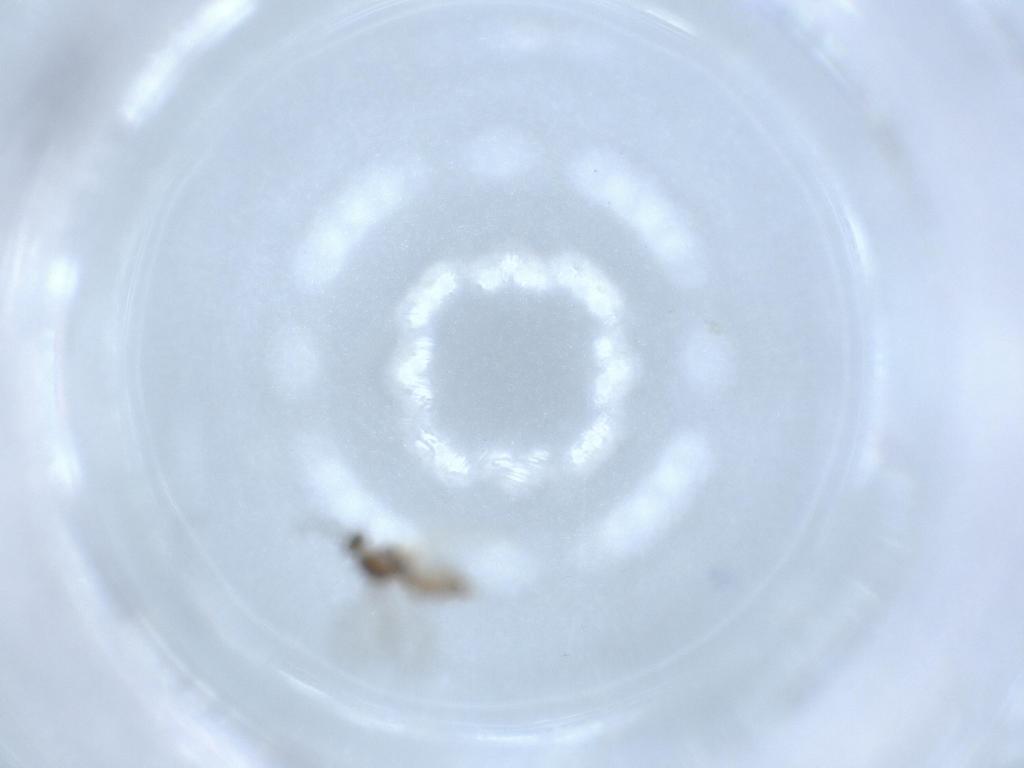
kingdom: Animalia
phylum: Arthropoda
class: Insecta
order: Diptera
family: Cecidomyiidae
